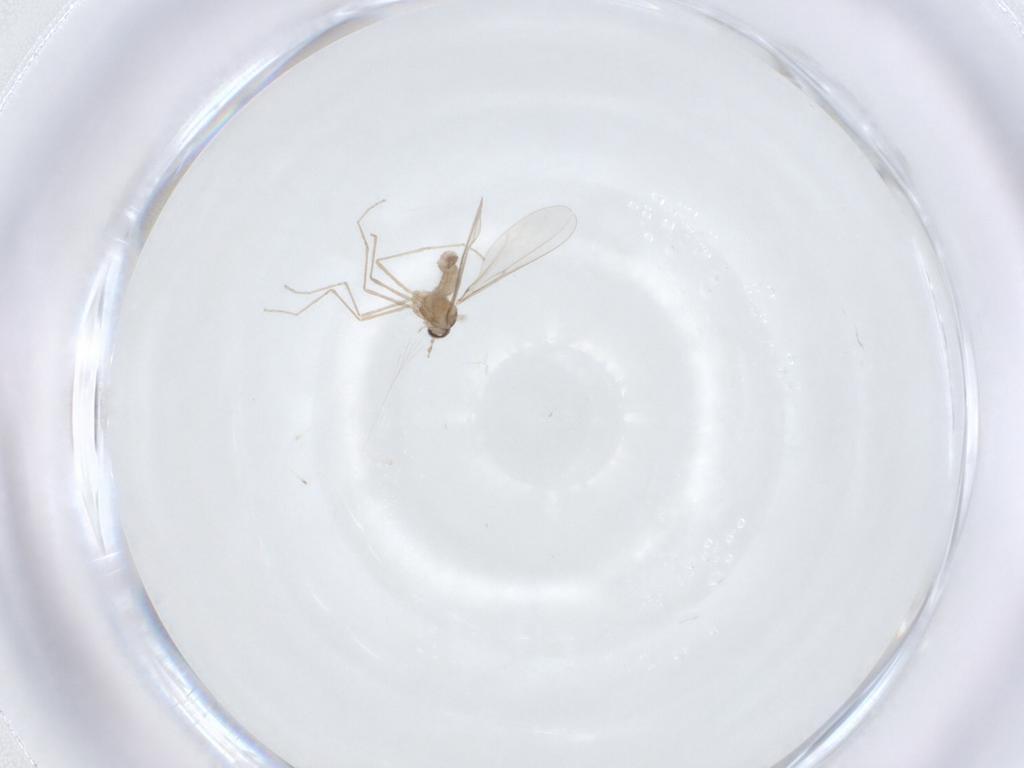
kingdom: Animalia
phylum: Arthropoda
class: Insecta
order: Diptera
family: Cecidomyiidae
